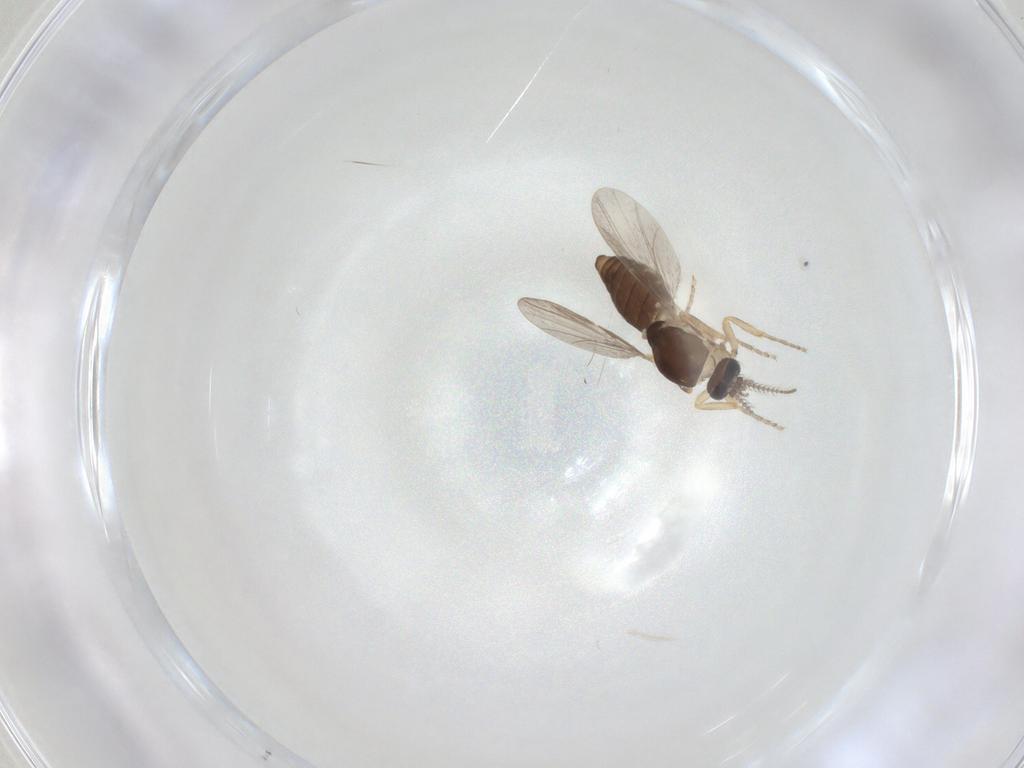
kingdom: Animalia
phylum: Arthropoda
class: Insecta
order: Diptera
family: Ceratopogonidae
